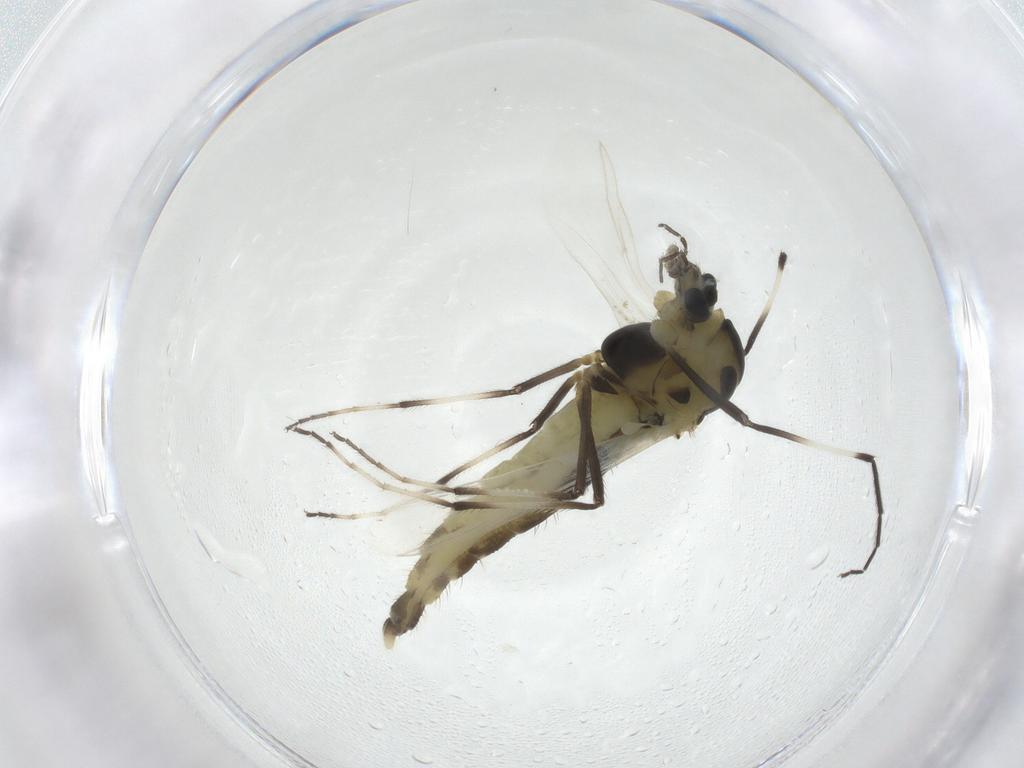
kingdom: Animalia
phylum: Arthropoda
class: Insecta
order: Diptera
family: Chironomidae
